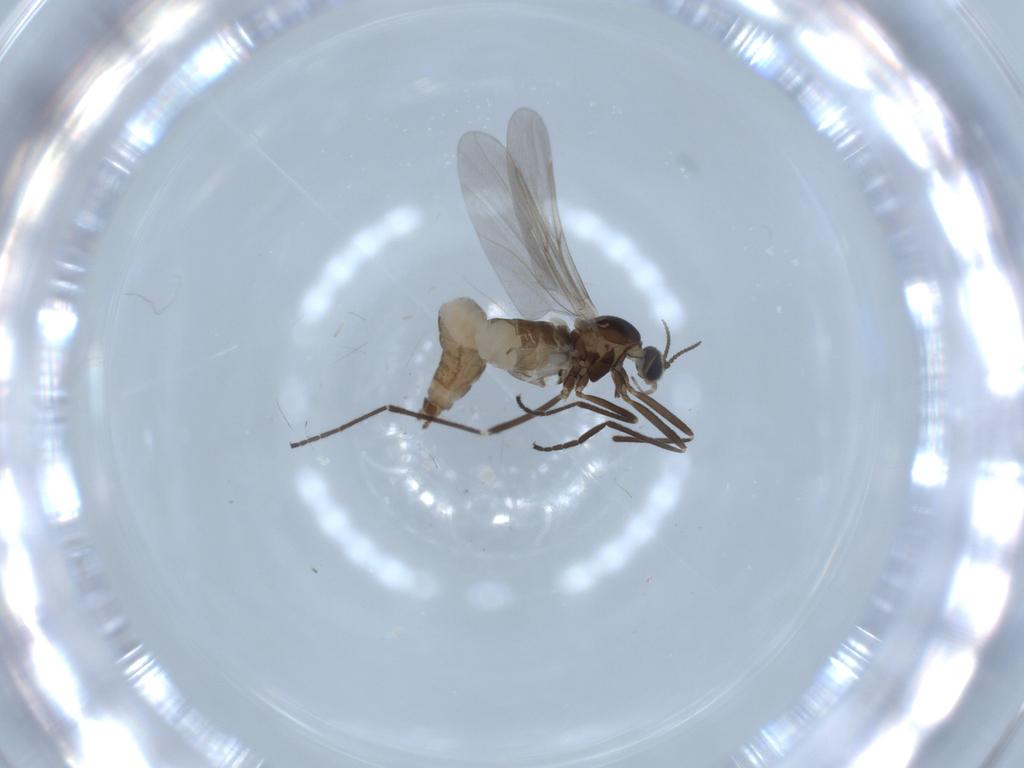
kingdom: Animalia
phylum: Arthropoda
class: Insecta
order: Diptera
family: Cecidomyiidae
